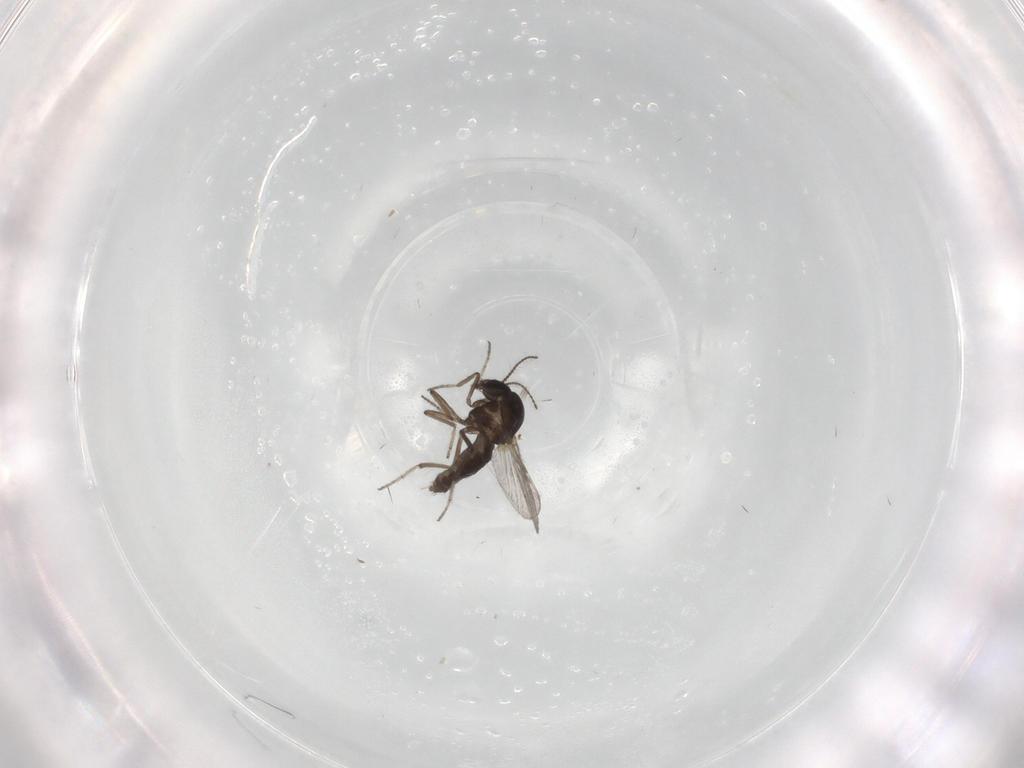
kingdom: Animalia
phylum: Arthropoda
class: Insecta
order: Diptera
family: Ceratopogonidae
